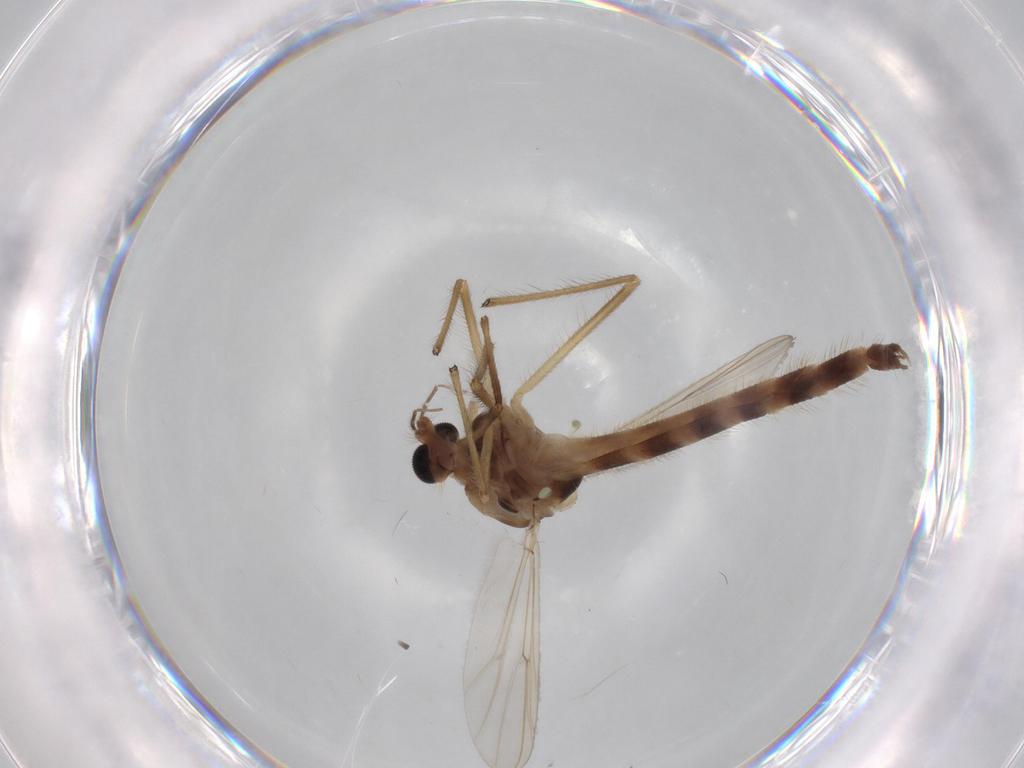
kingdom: Animalia
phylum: Arthropoda
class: Insecta
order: Diptera
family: Chironomidae
